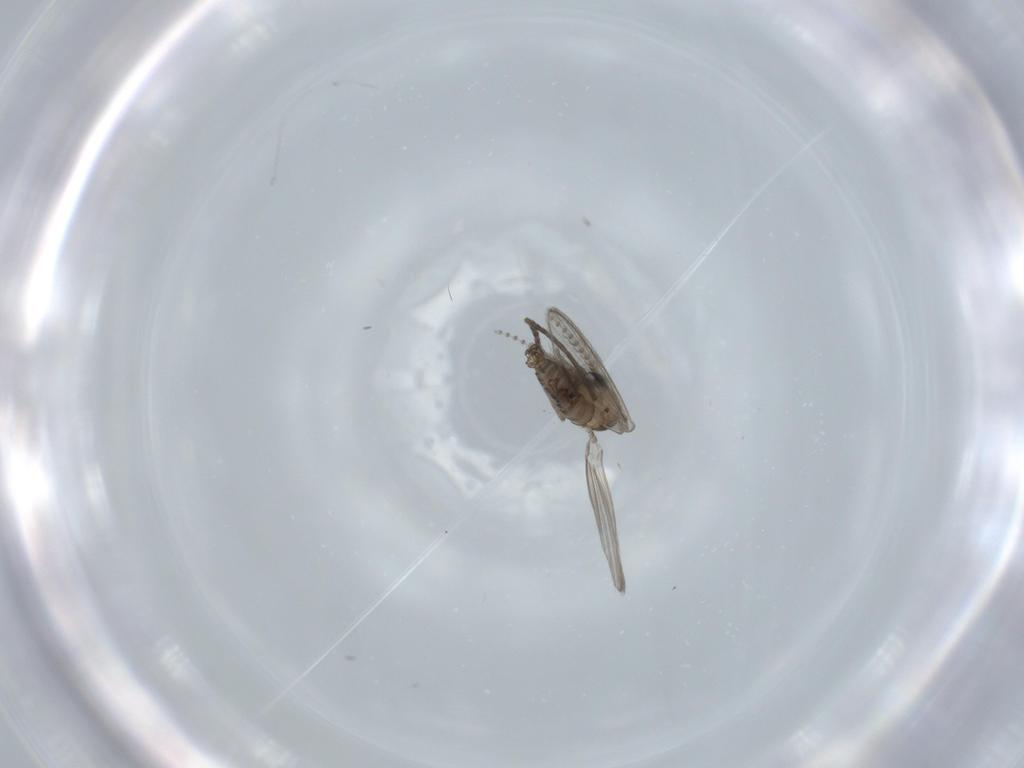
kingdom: Animalia
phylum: Arthropoda
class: Insecta
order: Diptera
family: Psychodidae
